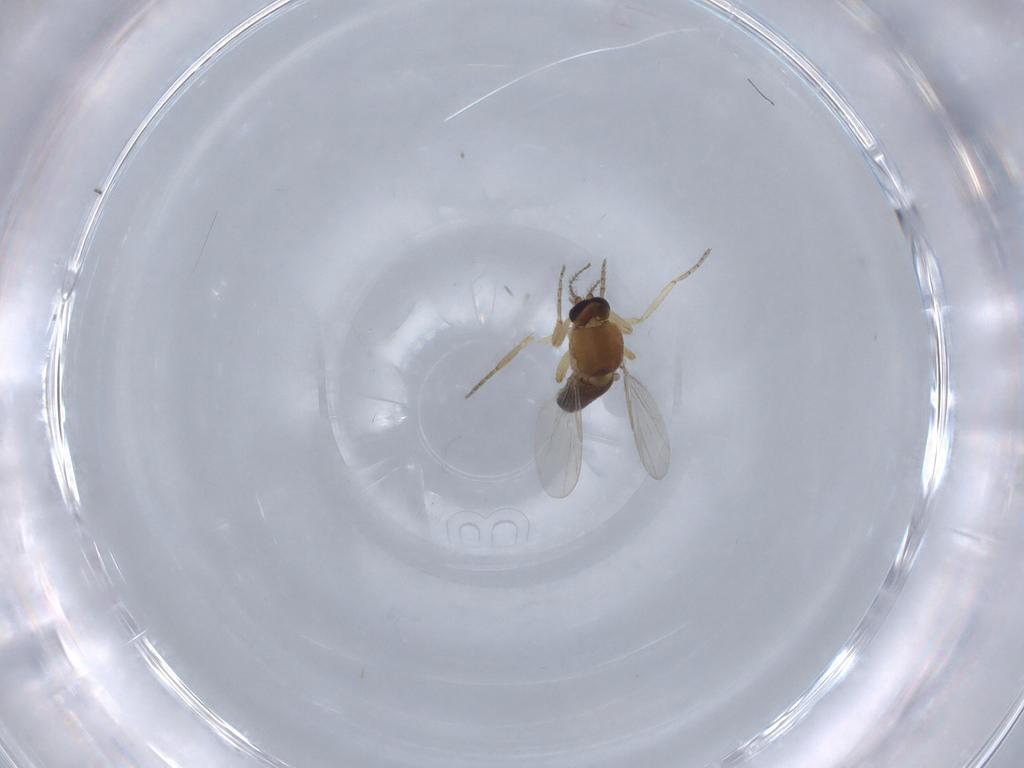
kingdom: Animalia
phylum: Arthropoda
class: Insecta
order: Diptera
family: Ceratopogonidae
